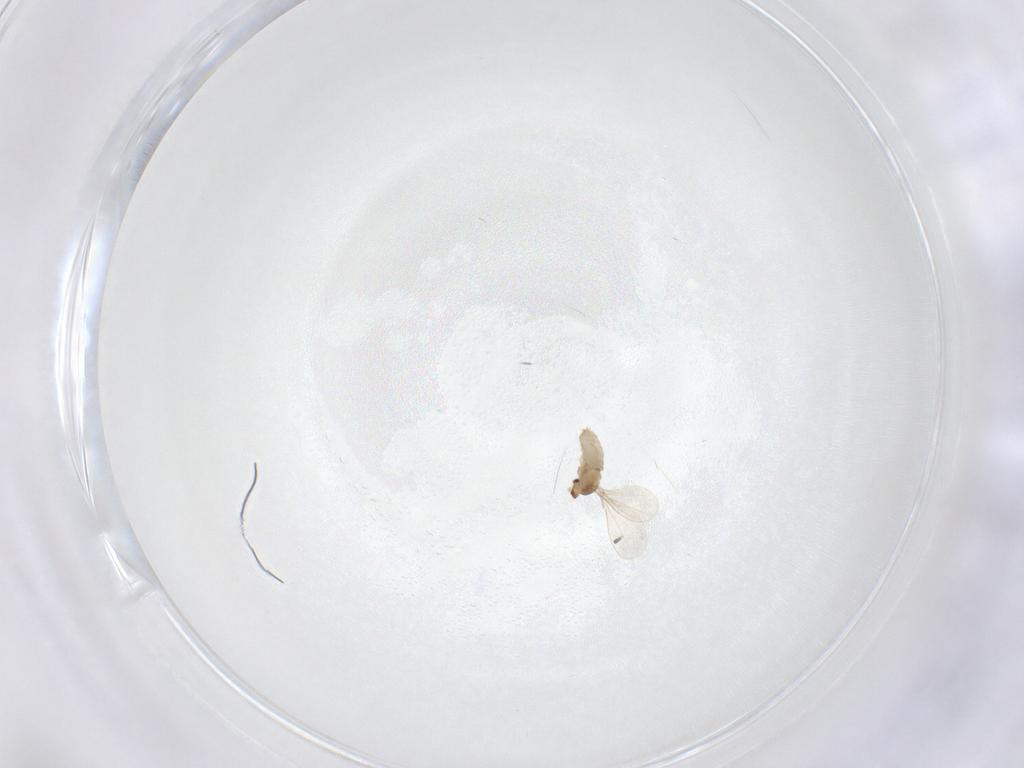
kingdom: Animalia
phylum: Arthropoda
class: Insecta
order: Diptera
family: Cecidomyiidae
